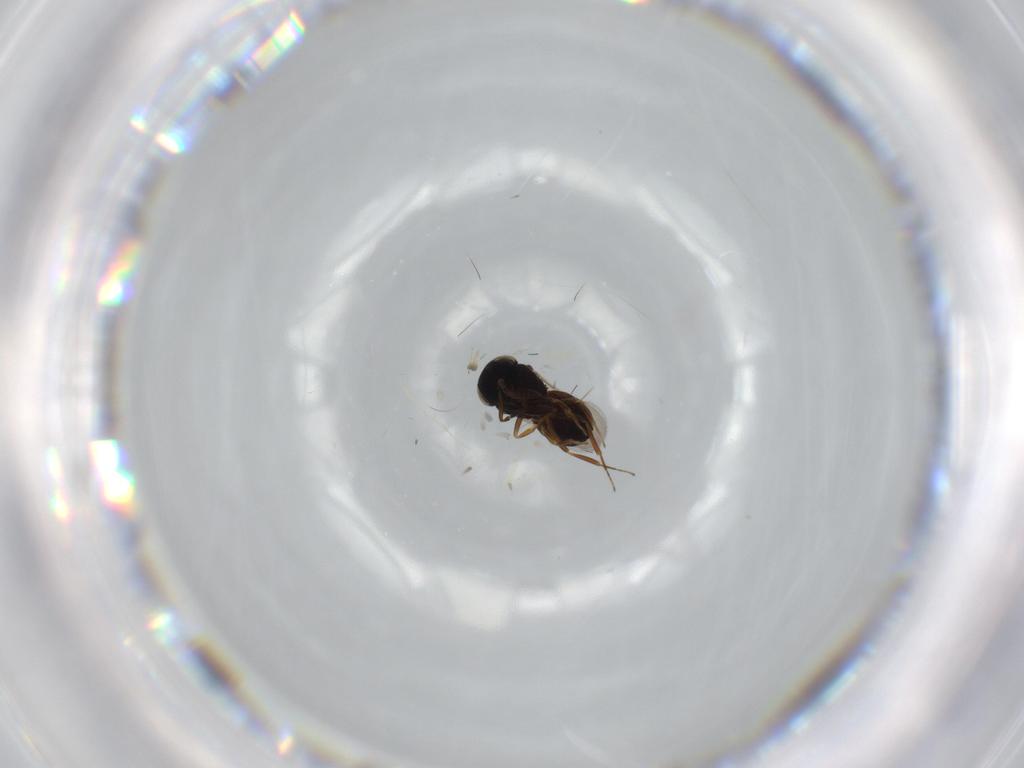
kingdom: Animalia
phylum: Arthropoda
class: Insecta
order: Hymenoptera
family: Scelionidae
